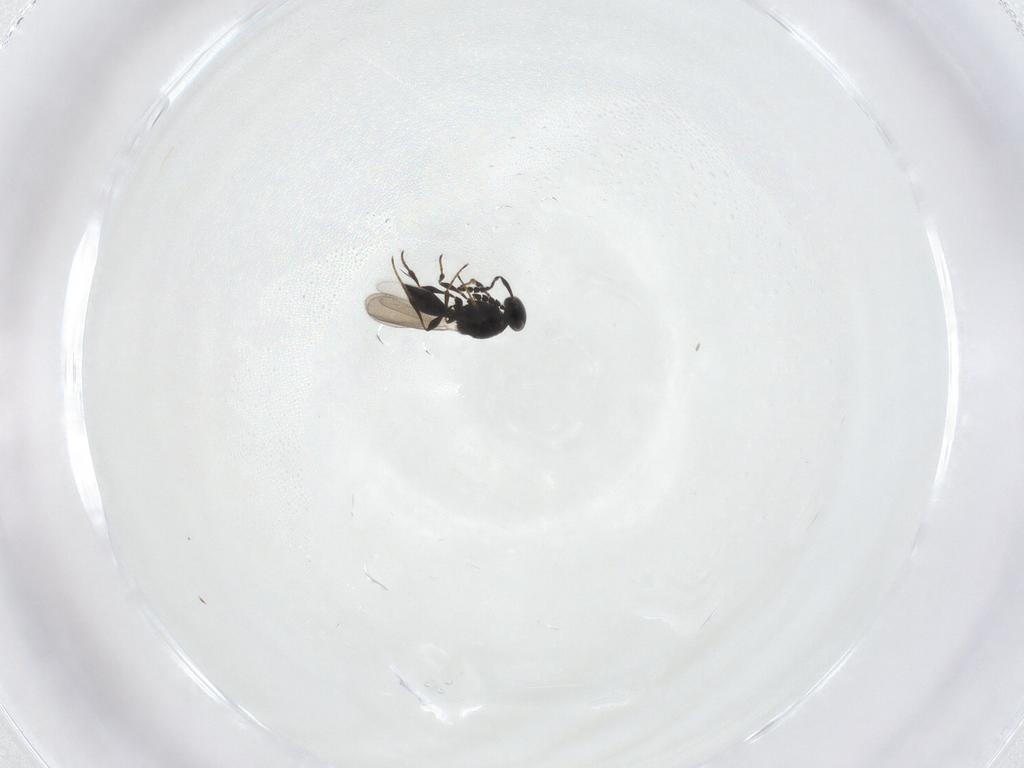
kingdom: Animalia
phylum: Arthropoda
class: Insecta
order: Hymenoptera
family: Platygastridae
